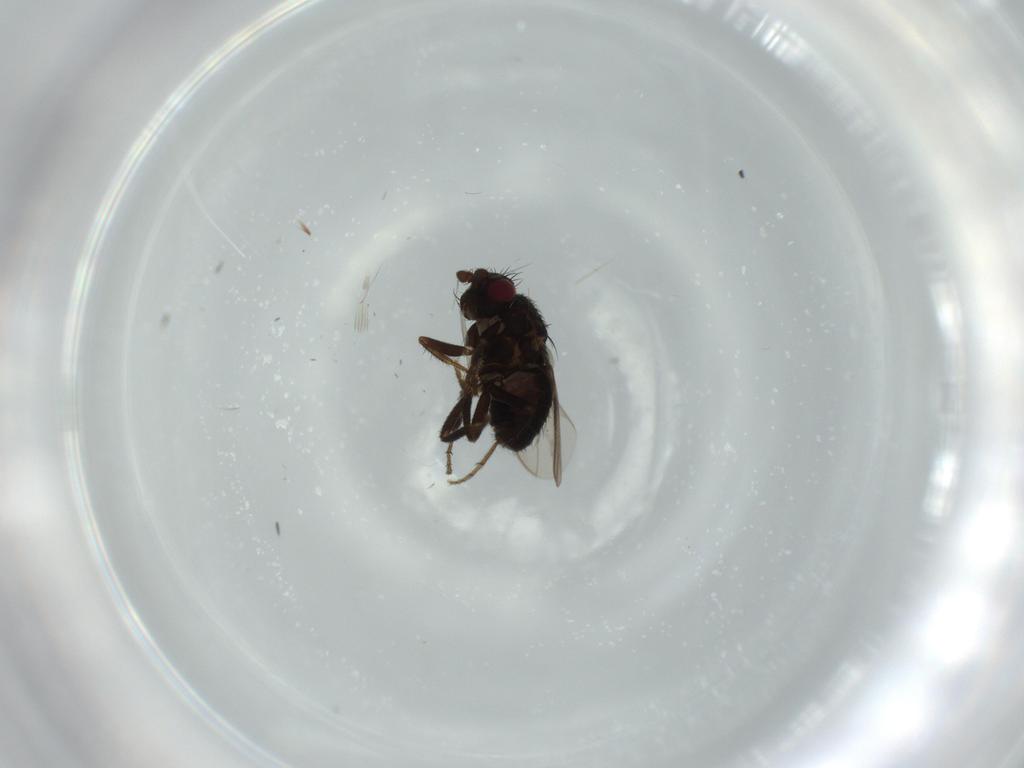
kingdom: Animalia
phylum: Arthropoda
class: Insecta
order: Diptera
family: Sphaeroceridae
